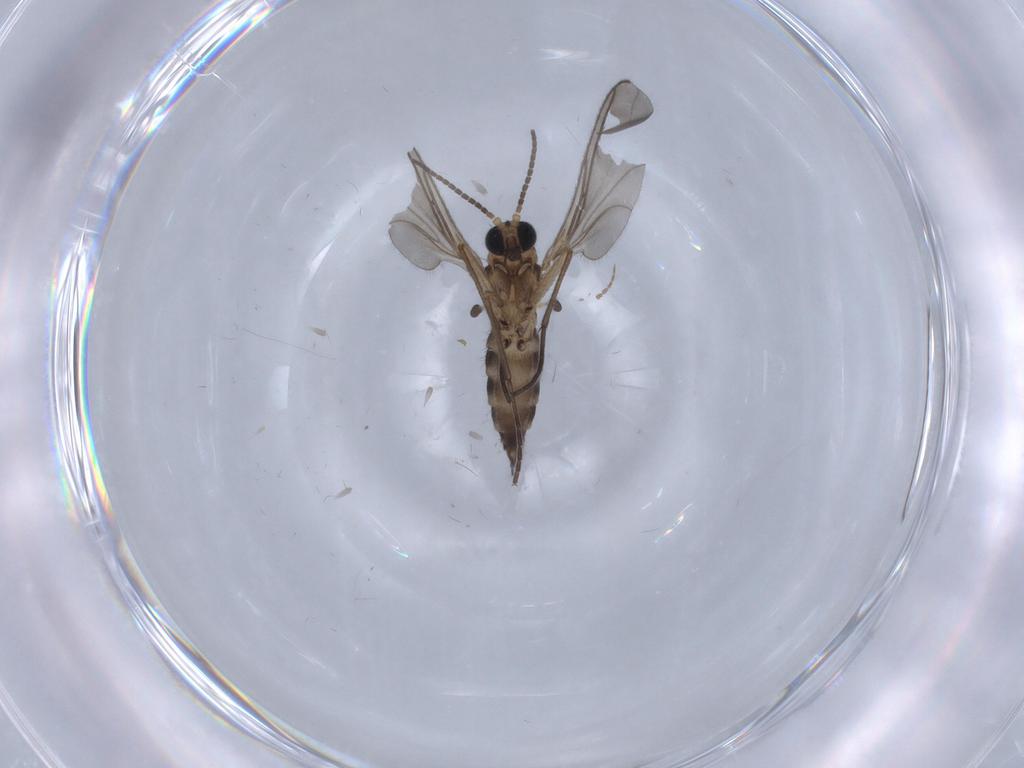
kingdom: Animalia
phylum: Arthropoda
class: Insecta
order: Diptera
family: Sciaridae
